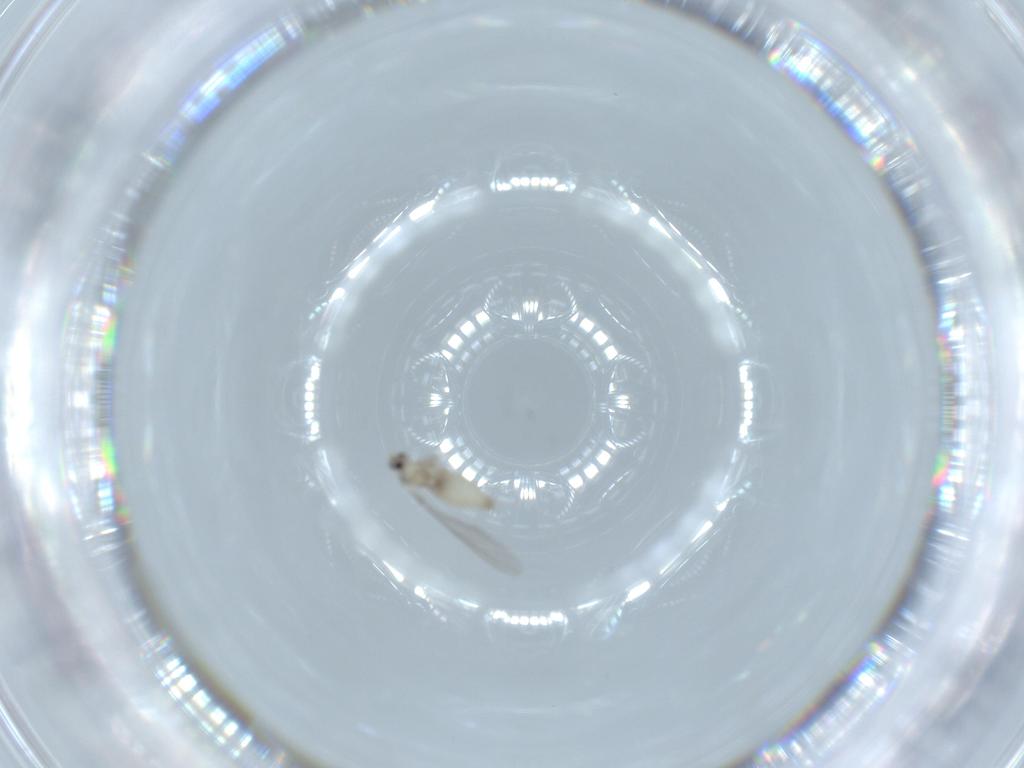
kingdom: Animalia
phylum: Arthropoda
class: Insecta
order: Diptera
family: Cecidomyiidae
